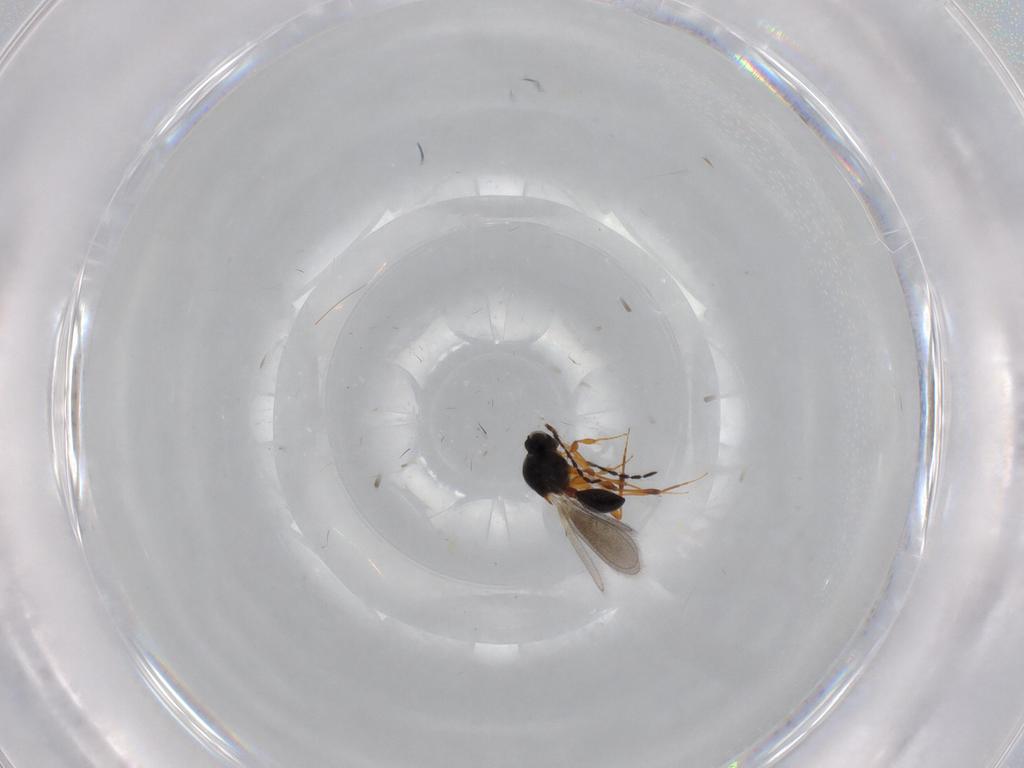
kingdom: Animalia
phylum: Arthropoda
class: Insecta
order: Hymenoptera
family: Platygastridae
